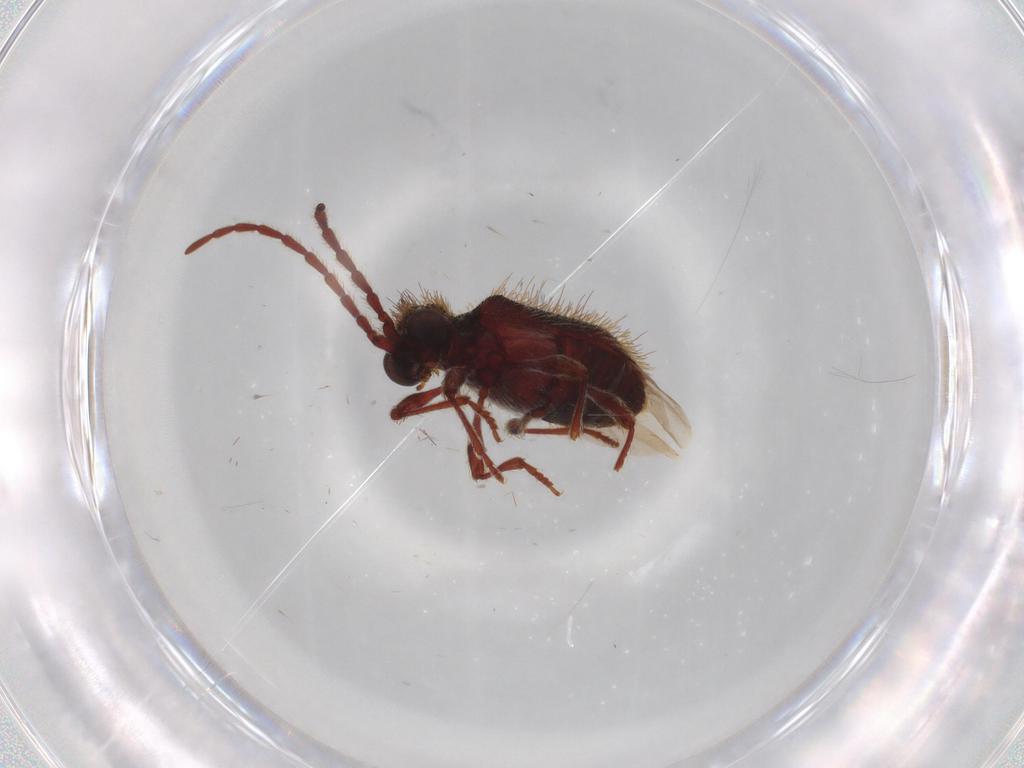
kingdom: Animalia
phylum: Arthropoda
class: Insecta
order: Coleoptera
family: Ptinidae
